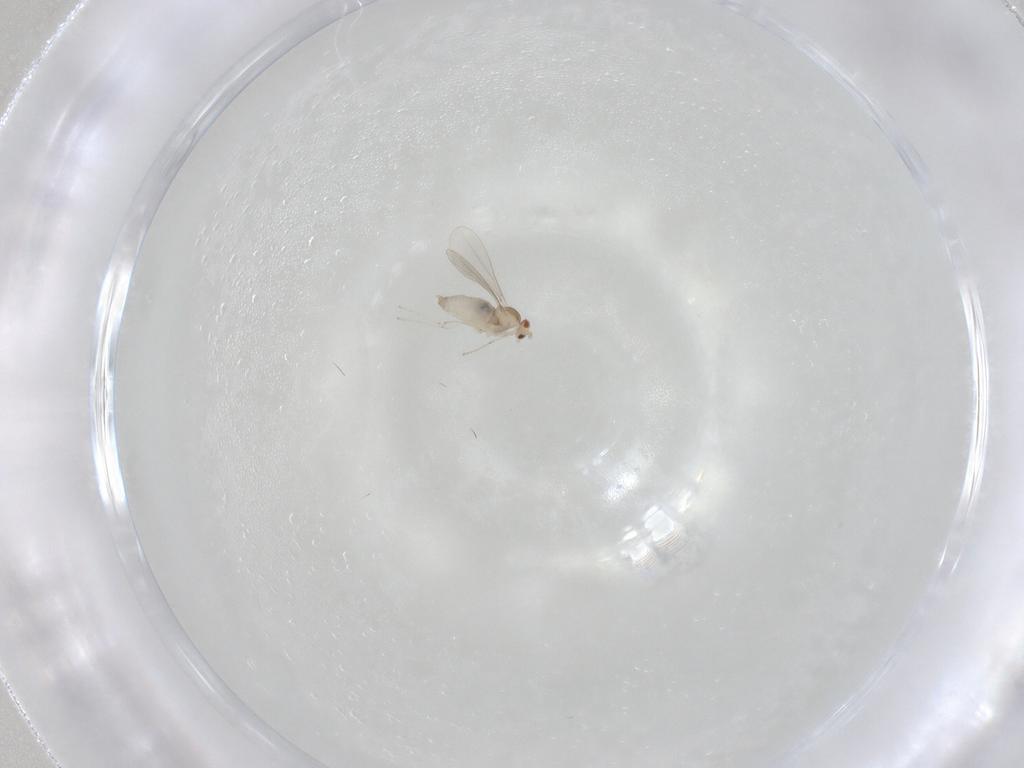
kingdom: Animalia
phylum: Arthropoda
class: Insecta
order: Diptera
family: Cecidomyiidae
